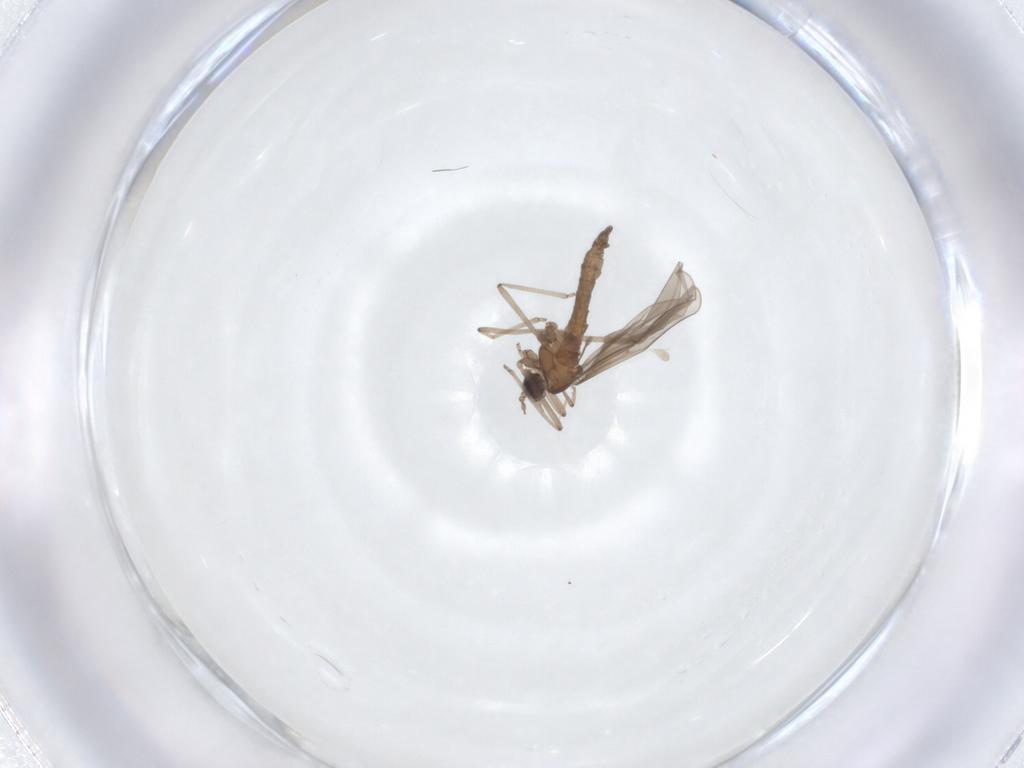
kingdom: Animalia
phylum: Arthropoda
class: Insecta
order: Diptera
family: Cecidomyiidae
